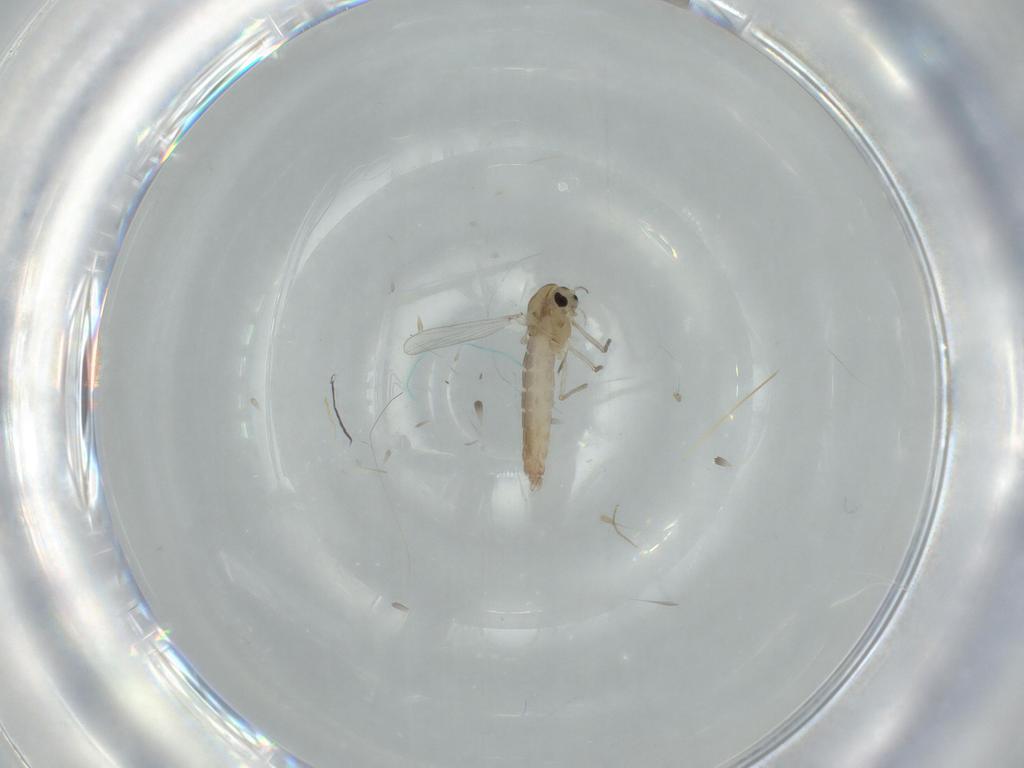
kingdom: Animalia
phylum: Arthropoda
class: Insecta
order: Diptera
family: Chironomidae
